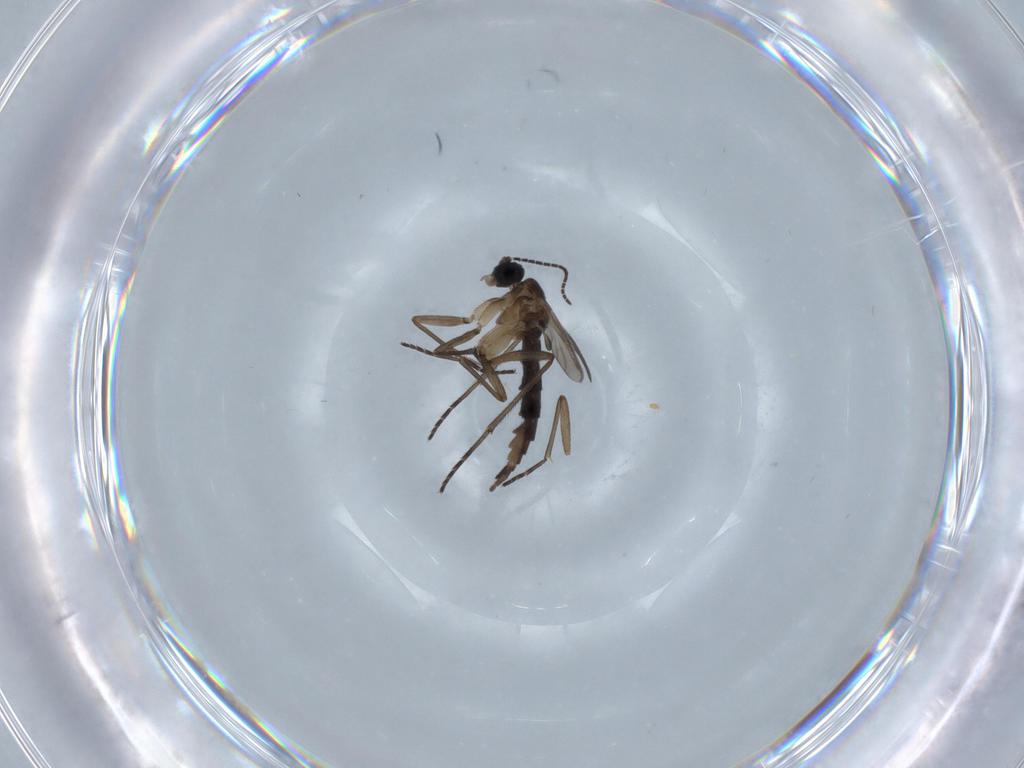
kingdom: Animalia
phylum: Arthropoda
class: Insecta
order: Diptera
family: Sciaridae
